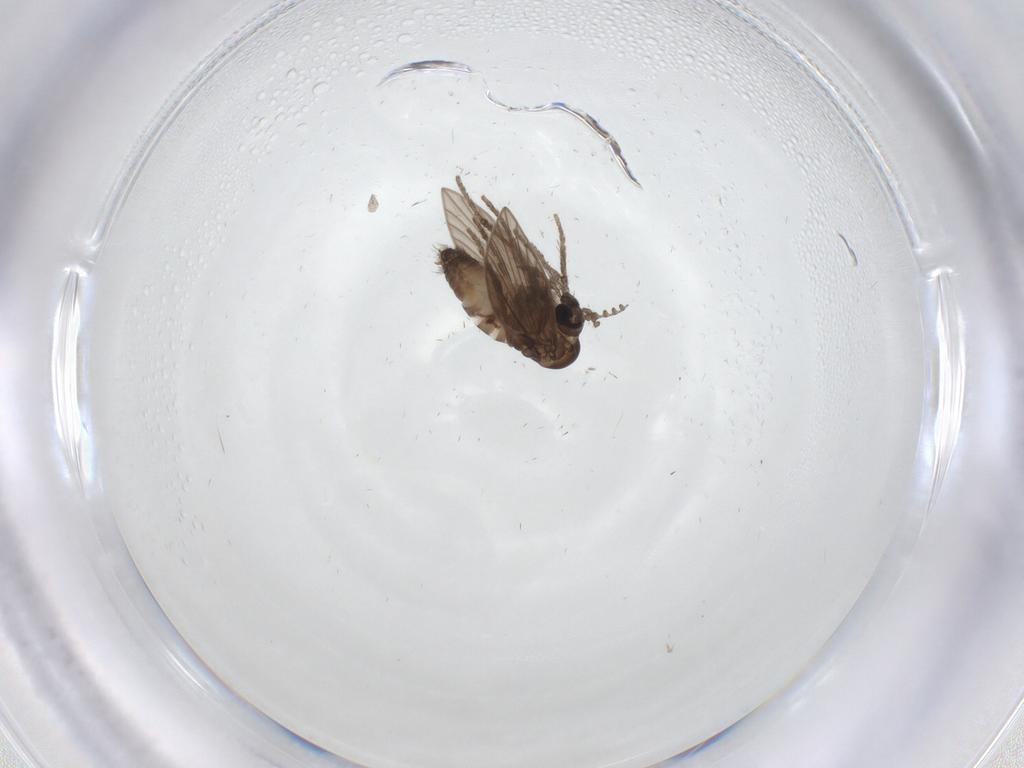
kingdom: Animalia
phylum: Arthropoda
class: Insecta
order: Diptera
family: Psychodidae
